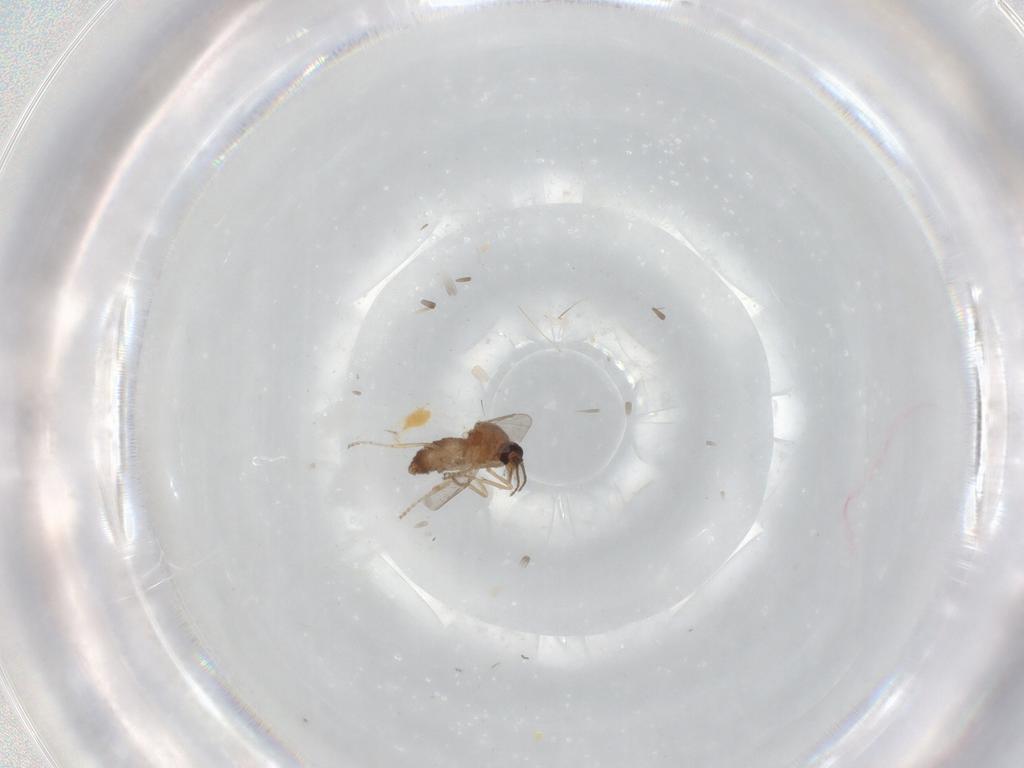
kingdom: Animalia
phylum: Arthropoda
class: Insecta
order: Diptera
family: Ceratopogonidae
